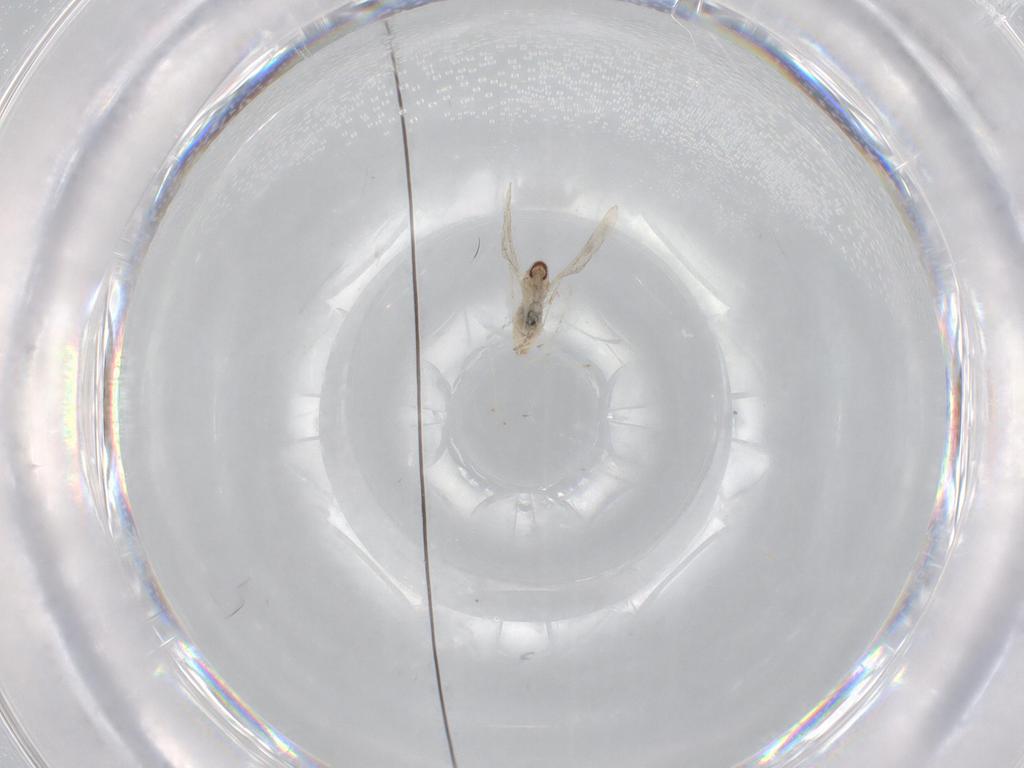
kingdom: Animalia
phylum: Arthropoda
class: Insecta
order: Diptera
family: Ceratopogonidae
